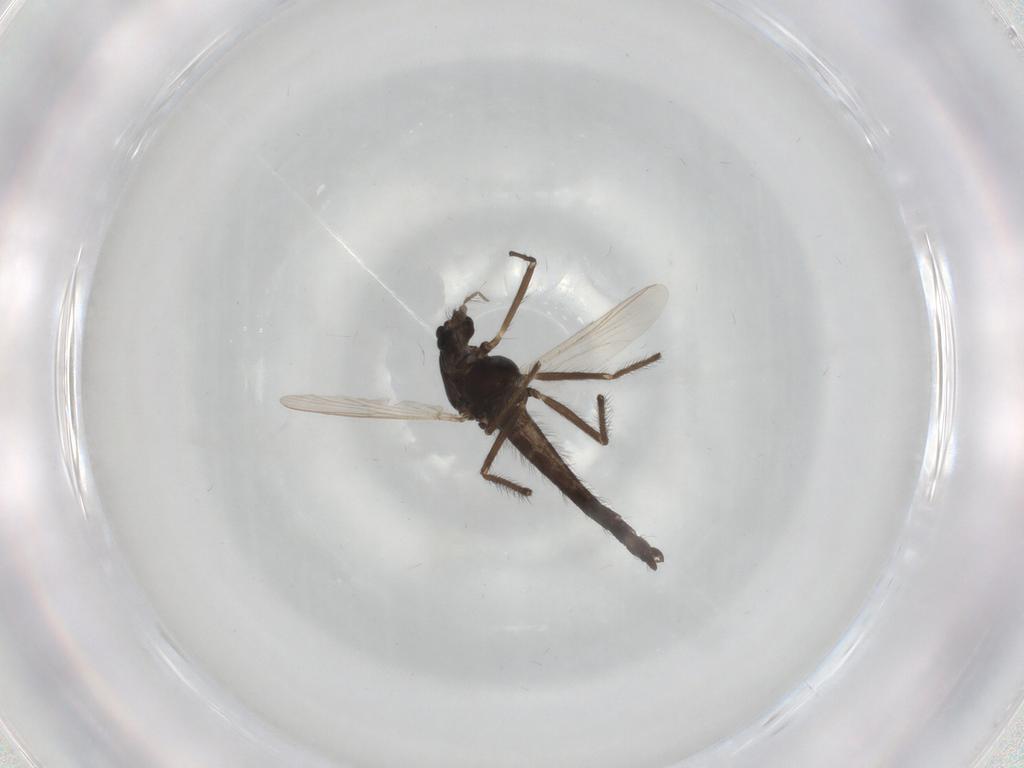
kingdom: Animalia
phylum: Arthropoda
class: Insecta
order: Diptera
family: Chironomidae
